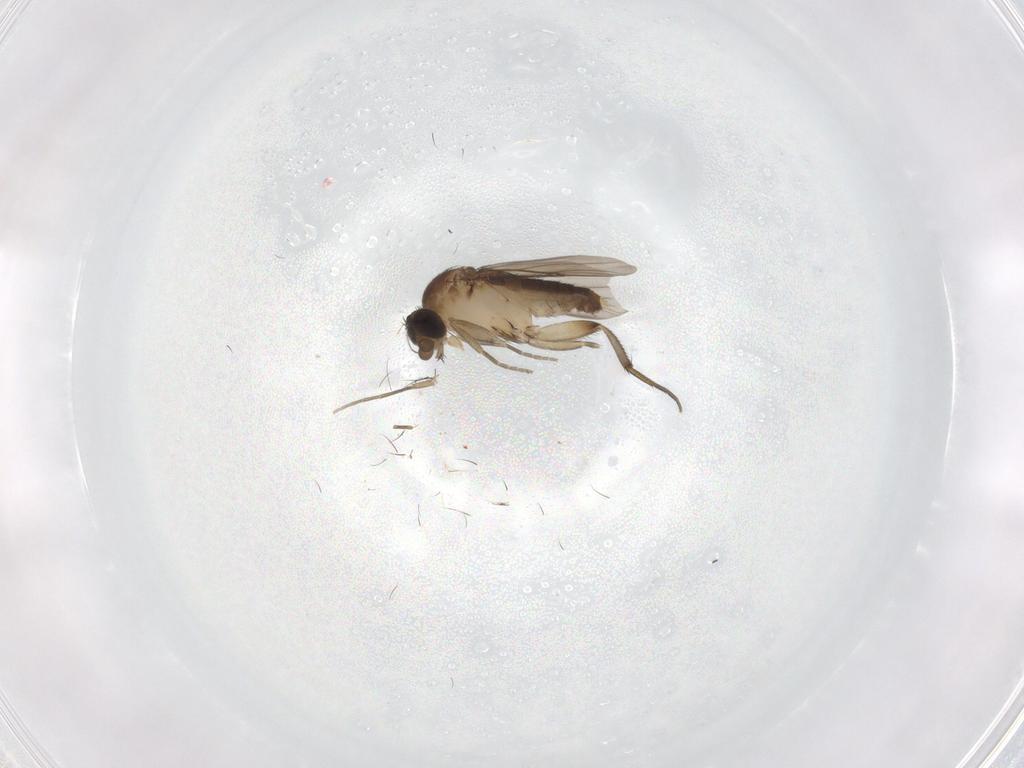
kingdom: Animalia
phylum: Arthropoda
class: Insecta
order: Diptera
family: Phoridae
